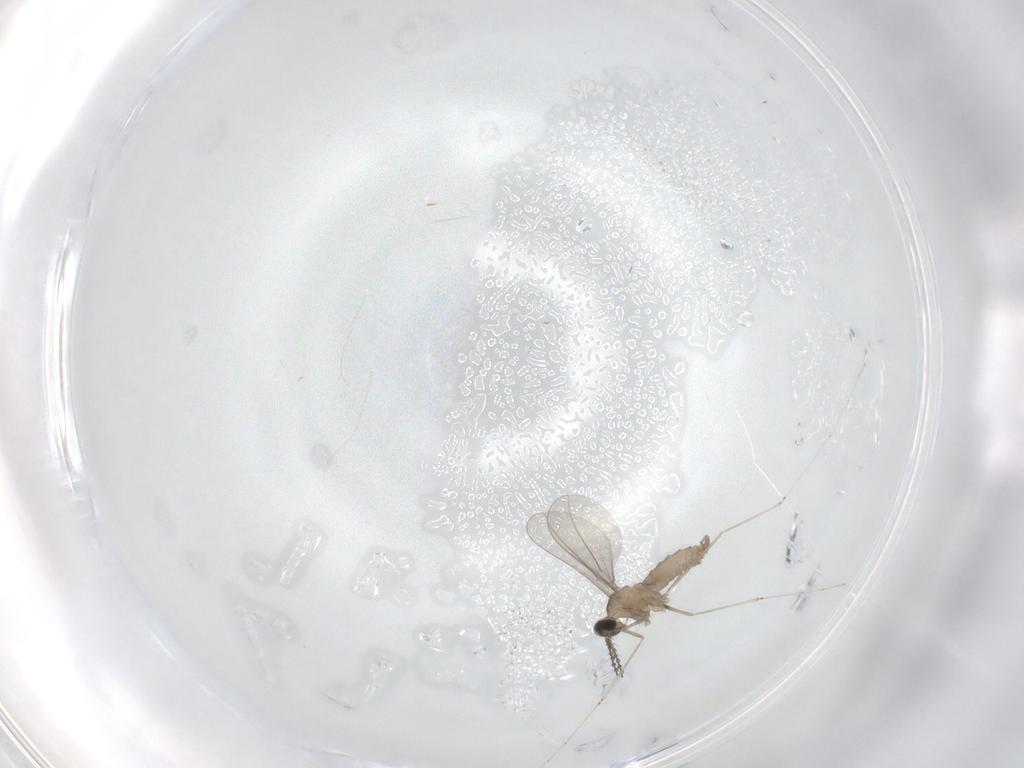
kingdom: Animalia
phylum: Arthropoda
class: Insecta
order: Diptera
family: Cecidomyiidae
